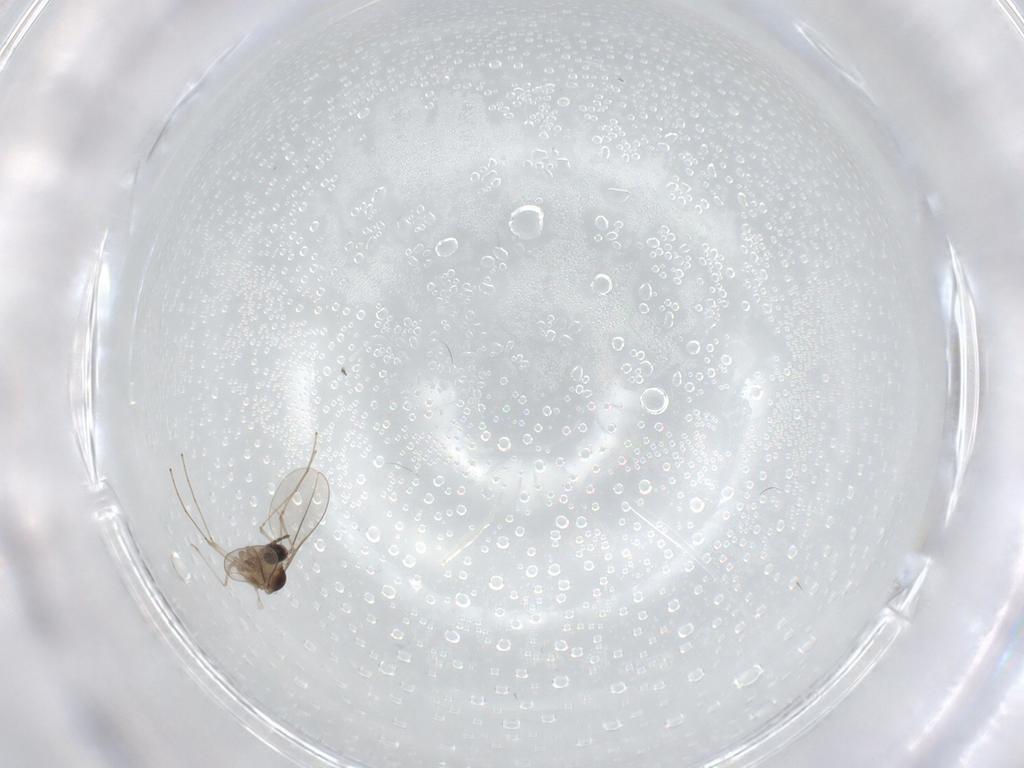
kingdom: Animalia
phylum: Arthropoda
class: Insecta
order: Diptera
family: Cecidomyiidae
